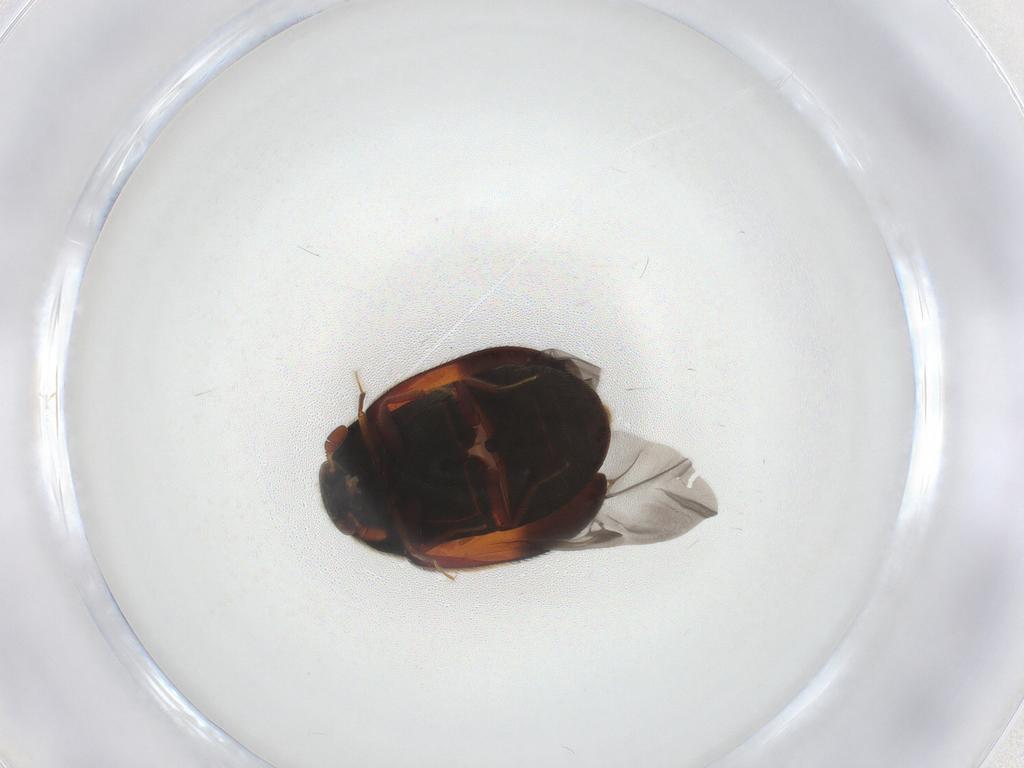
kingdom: Animalia
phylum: Arthropoda
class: Insecta
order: Coleoptera
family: Dermestidae
